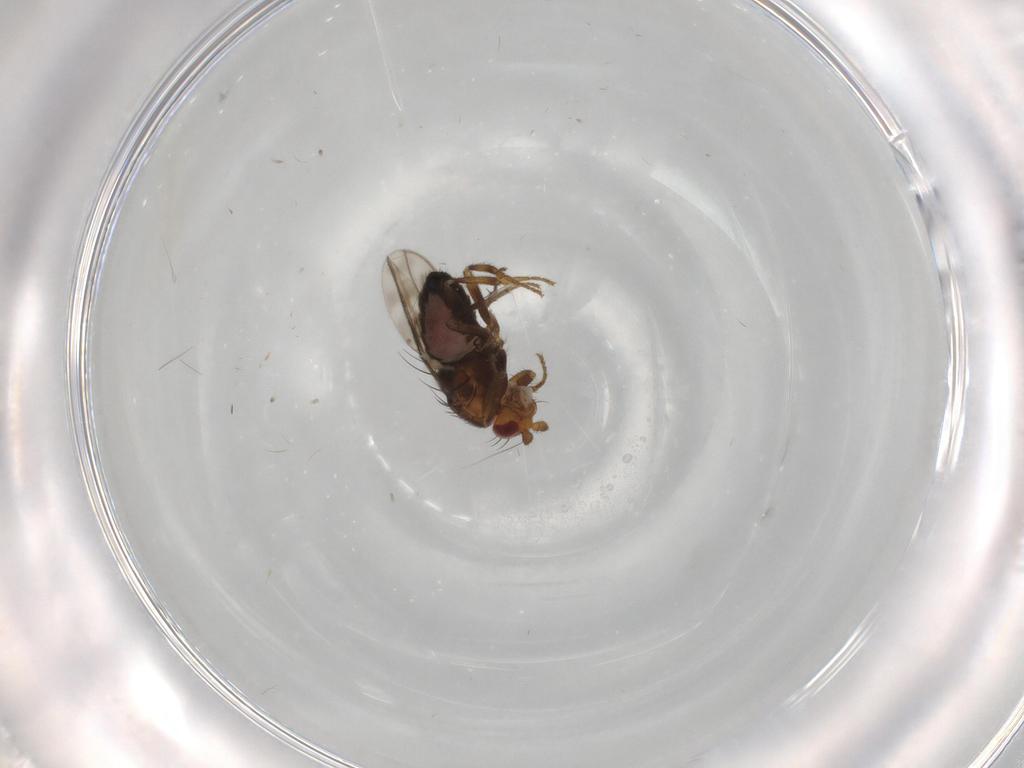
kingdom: Animalia
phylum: Arthropoda
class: Insecta
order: Diptera
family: Sphaeroceridae
